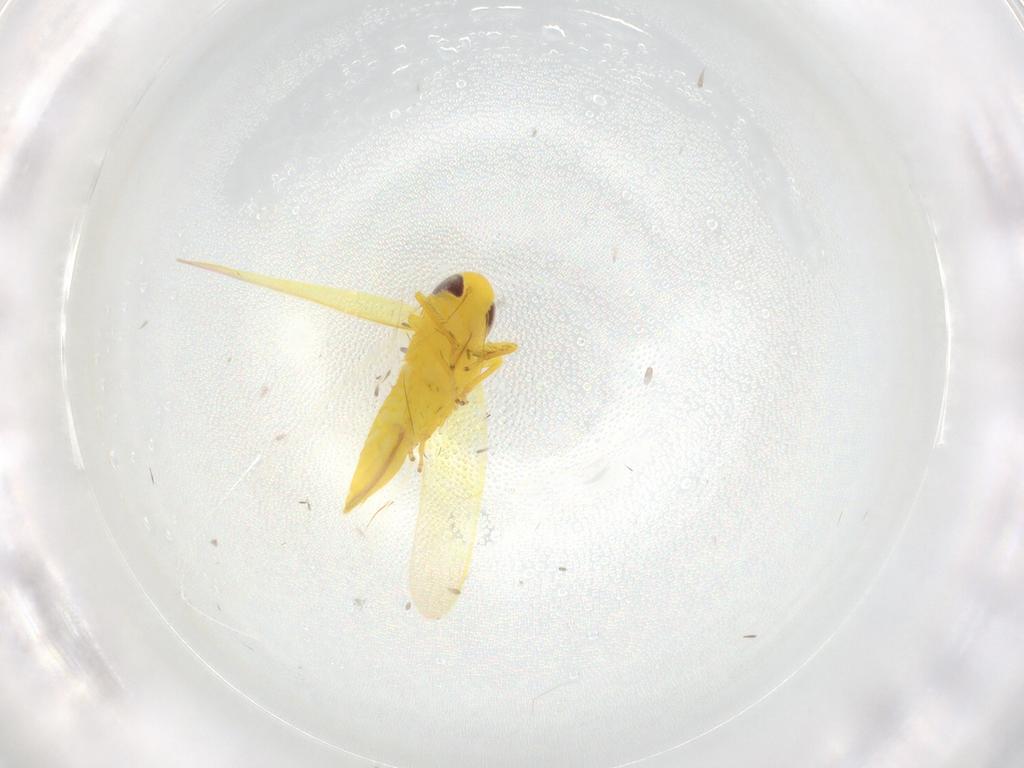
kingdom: Animalia
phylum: Arthropoda
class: Insecta
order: Hemiptera
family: Cicadellidae
